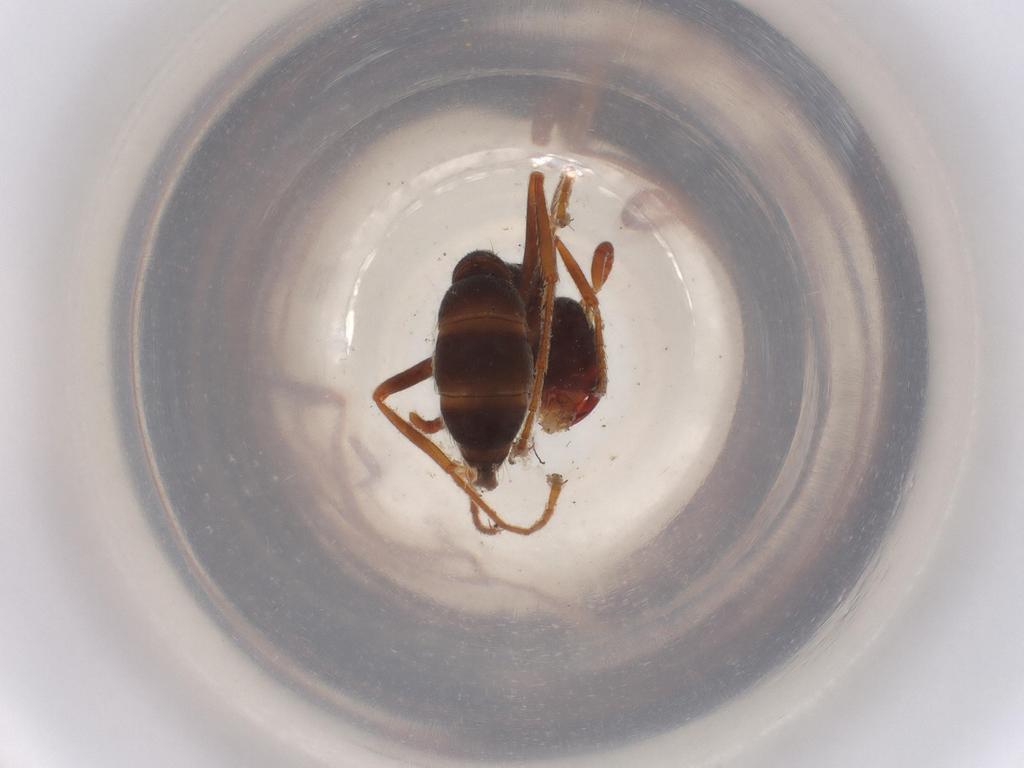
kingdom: Animalia
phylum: Arthropoda
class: Insecta
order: Hymenoptera
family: Formicidae
